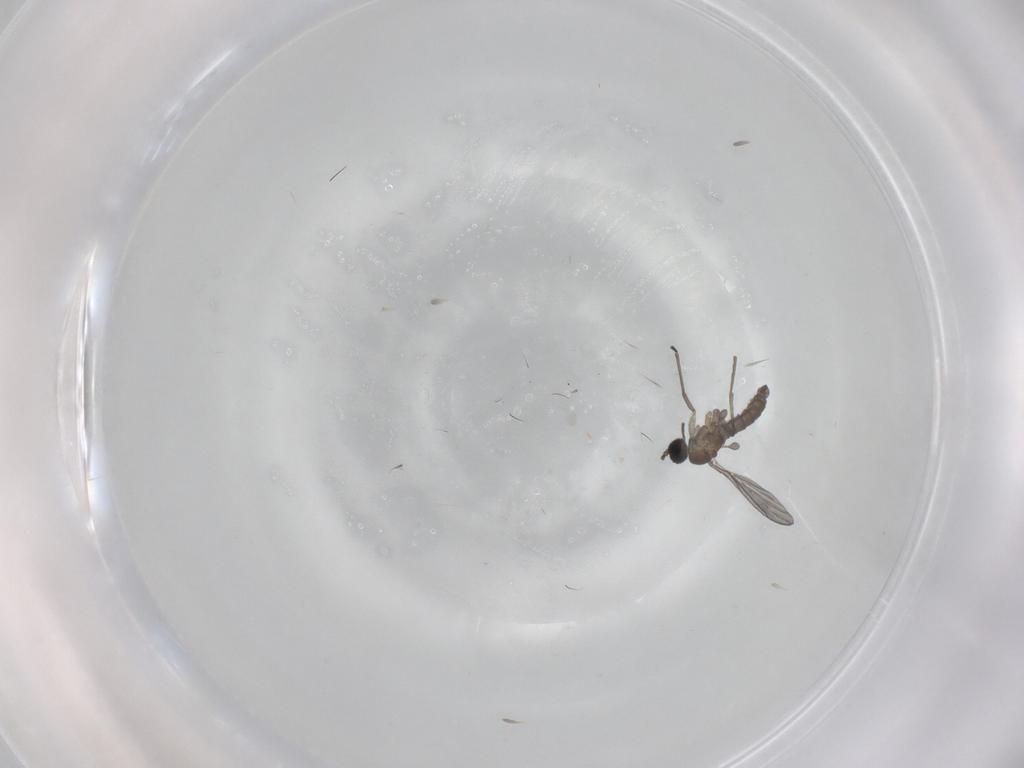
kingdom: Animalia
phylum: Arthropoda
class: Insecta
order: Diptera
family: Sciaridae
